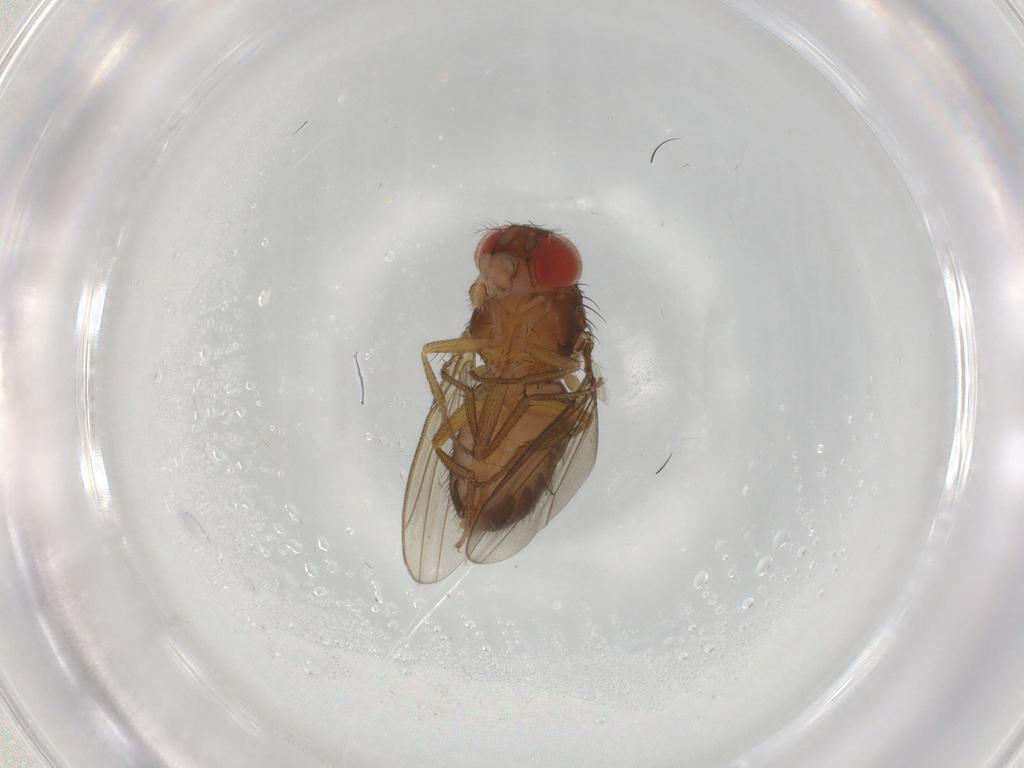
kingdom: Animalia
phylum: Arthropoda
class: Insecta
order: Diptera
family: Drosophilidae
